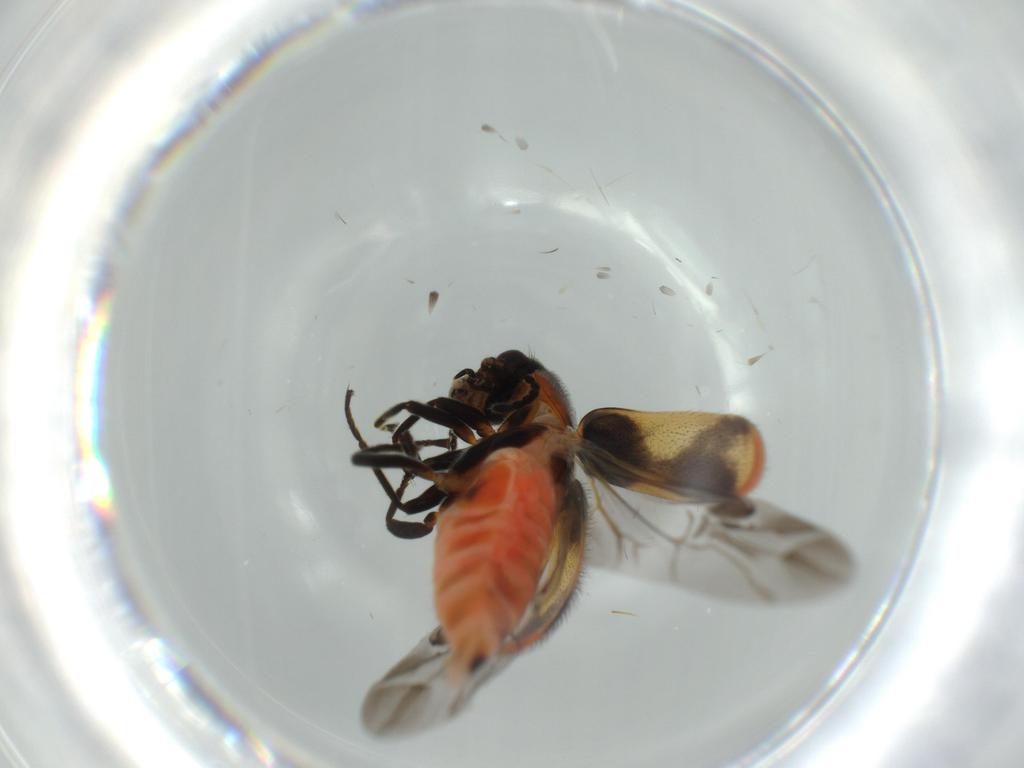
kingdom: Animalia
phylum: Arthropoda
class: Insecta
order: Coleoptera
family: Melyridae
